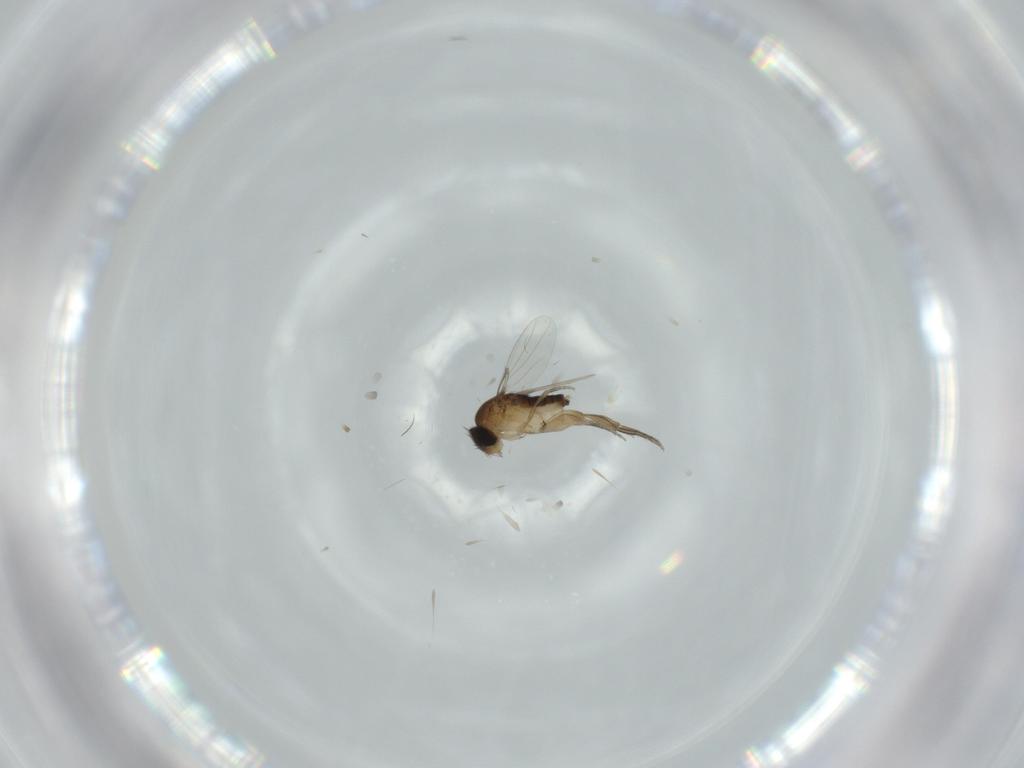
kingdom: Animalia
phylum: Arthropoda
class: Insecta
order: Diptera
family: Phoridae
